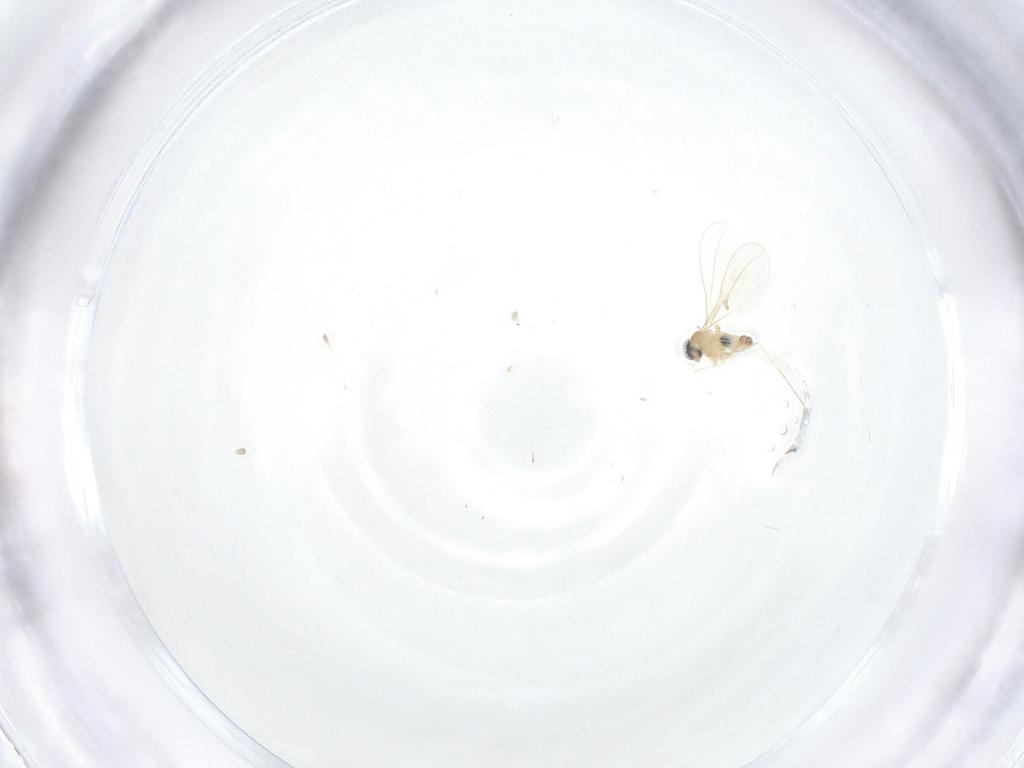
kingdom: Animalia
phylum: Arthropoda
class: Insecta
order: Diptera
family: Cecidomyiidae
